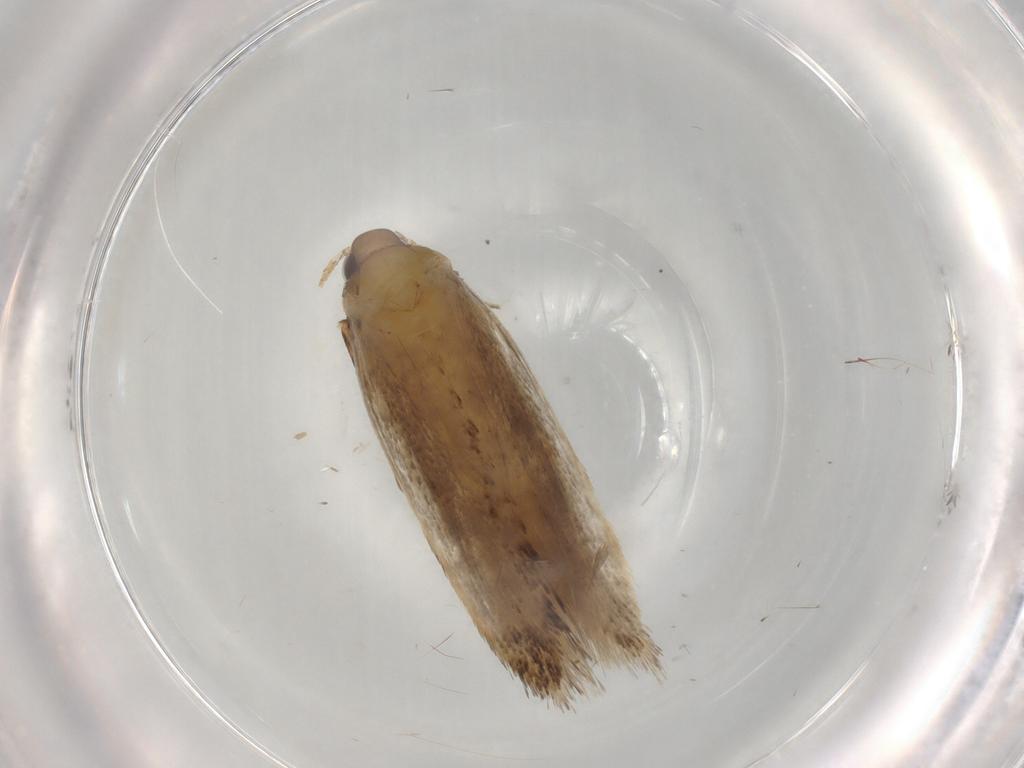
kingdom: Animalia
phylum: Arthropoda
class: Insecta
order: Lepidoptera
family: Autostichidae
